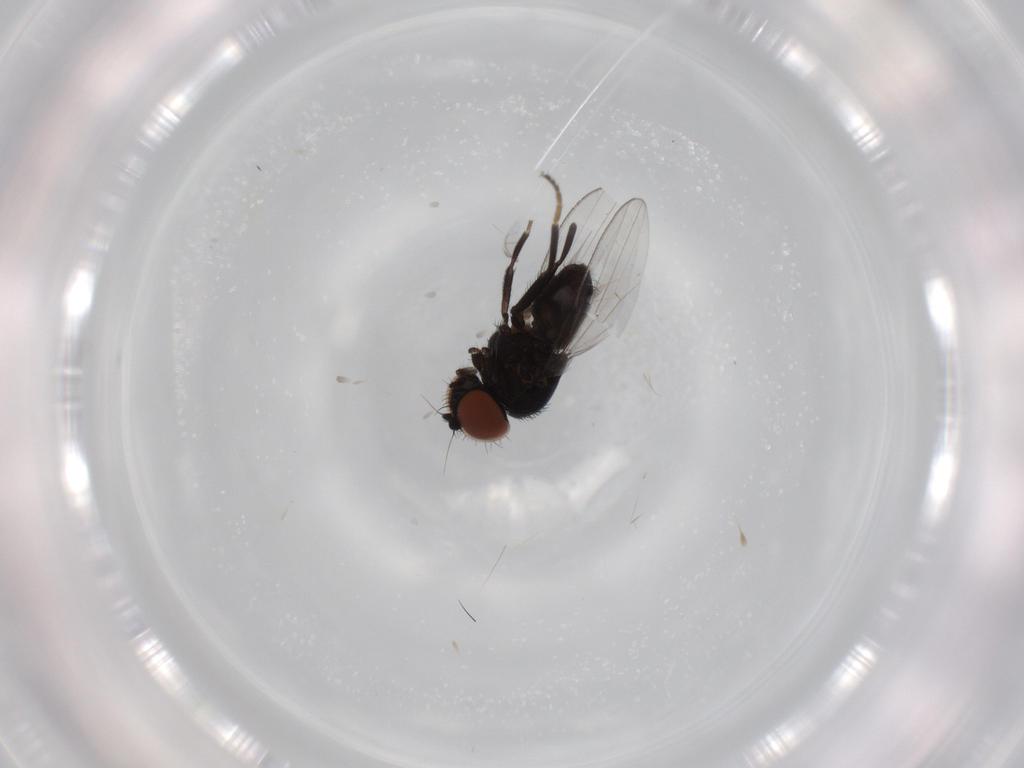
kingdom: Animalia
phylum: Arthropoda
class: Insecta
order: Diptera
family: Milichiidae
